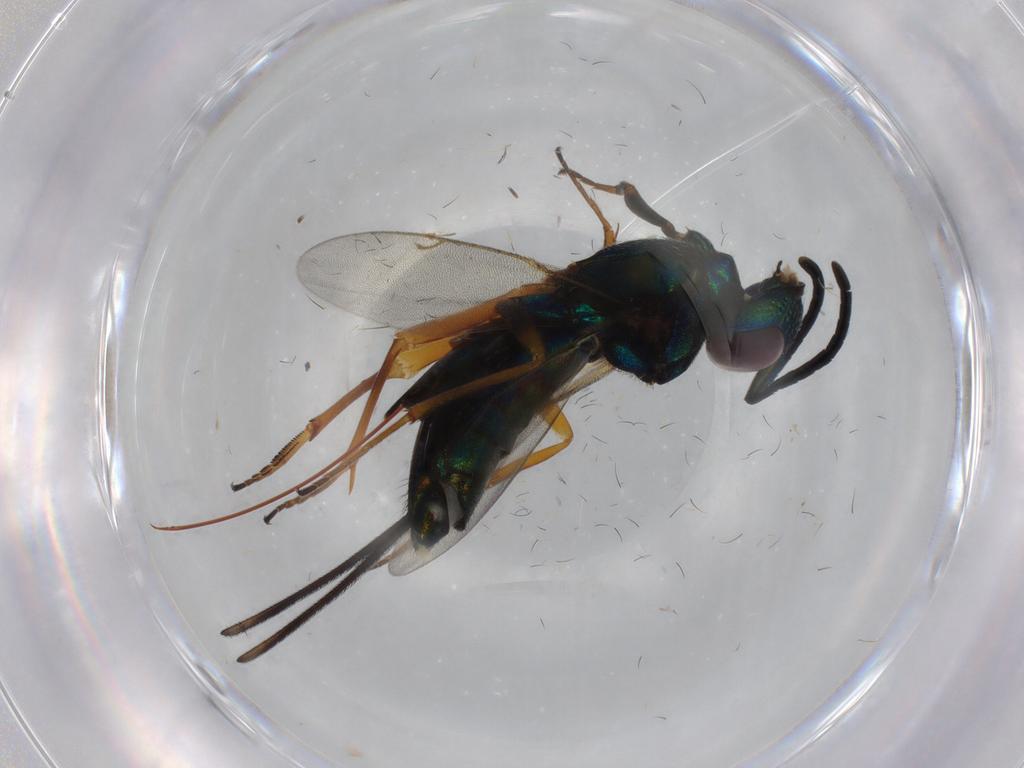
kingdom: Animalia
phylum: Arthropoda
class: Insecta
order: Hymenoptera
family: Eupelmidae
